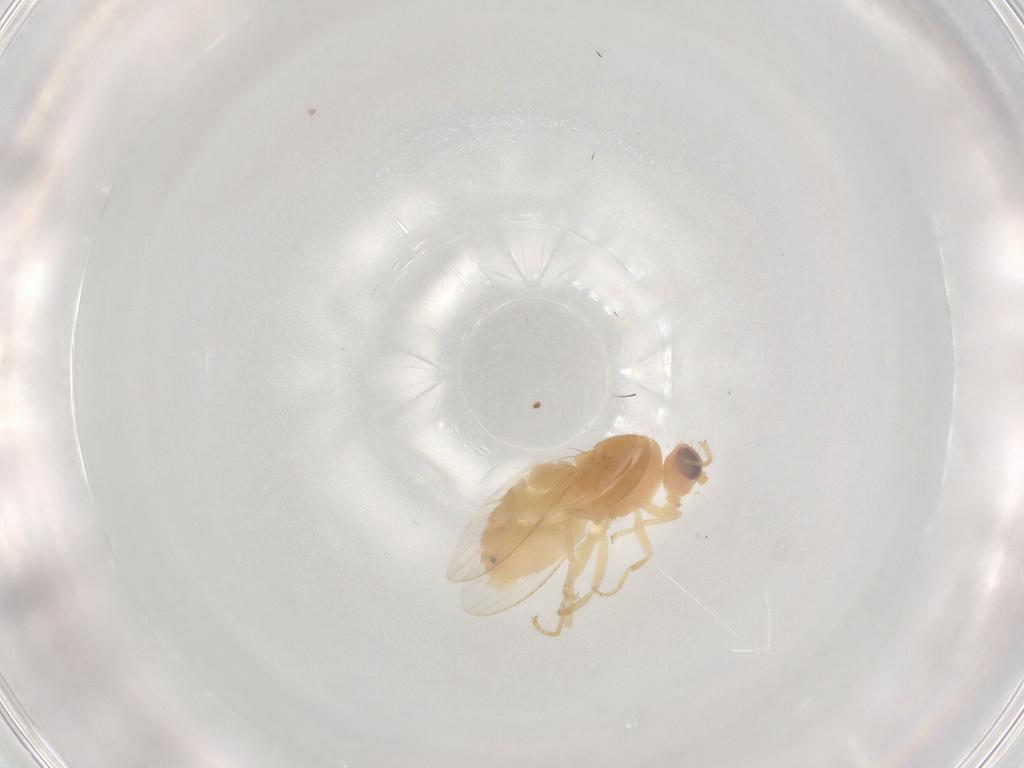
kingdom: Animalia
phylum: Arthropoda
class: Insecta
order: Diptera
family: Chyromyidae
